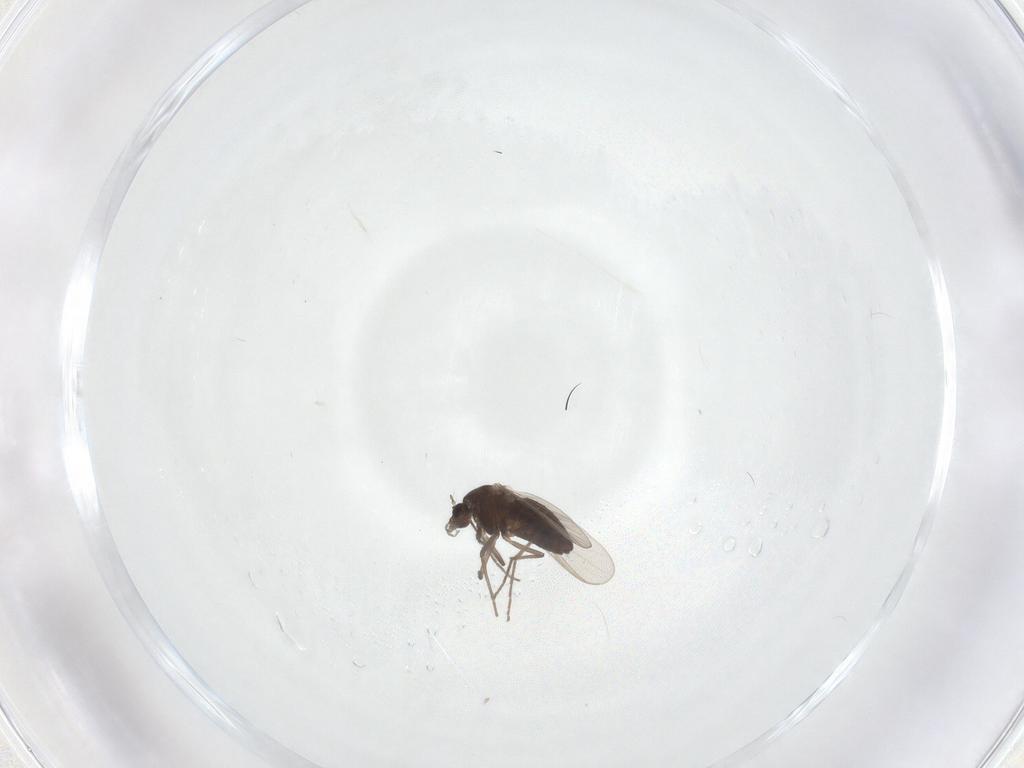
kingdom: Animalia
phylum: Arthropoda
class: Insecta
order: Diptera
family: Chironomidae
